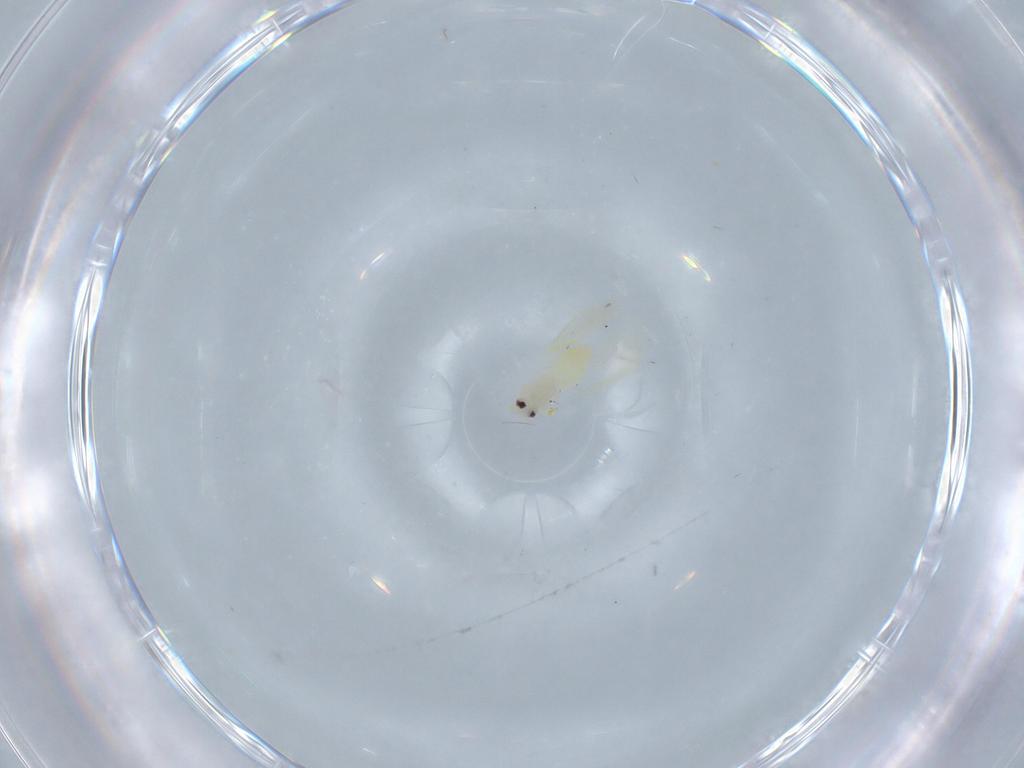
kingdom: Animalia
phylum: Arthropoda
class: Insecta
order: Hemiptera
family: Aleyrodidae
